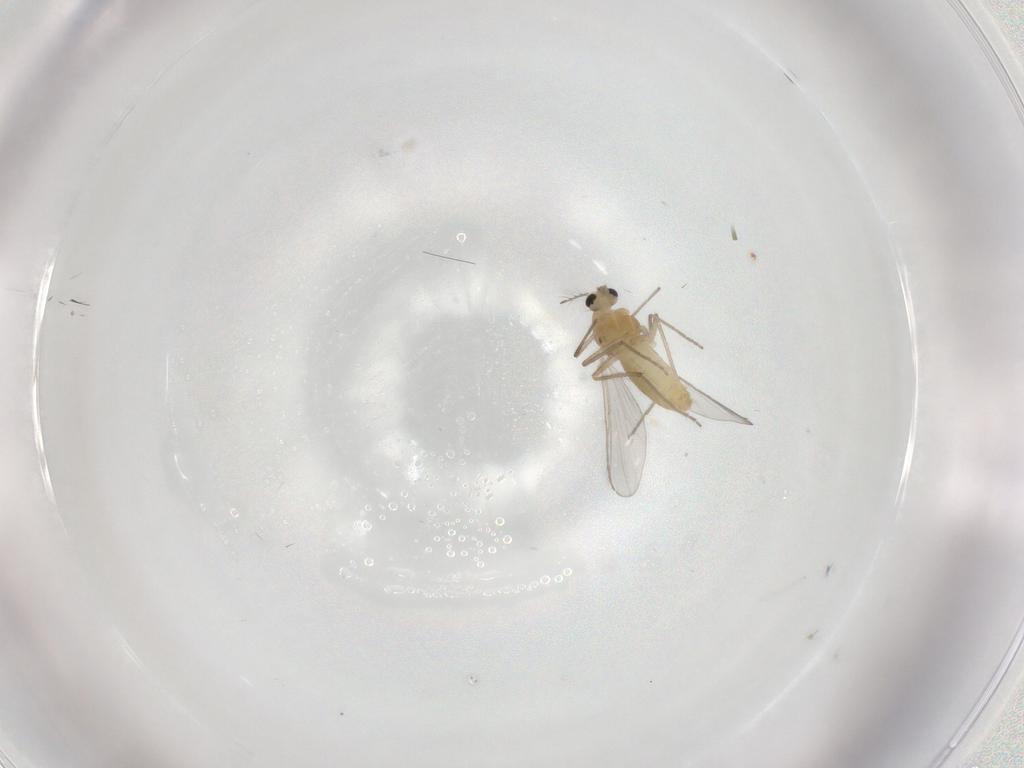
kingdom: Animalia
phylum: Arthropoda
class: Insecta
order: Diptera
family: Chironomidae
